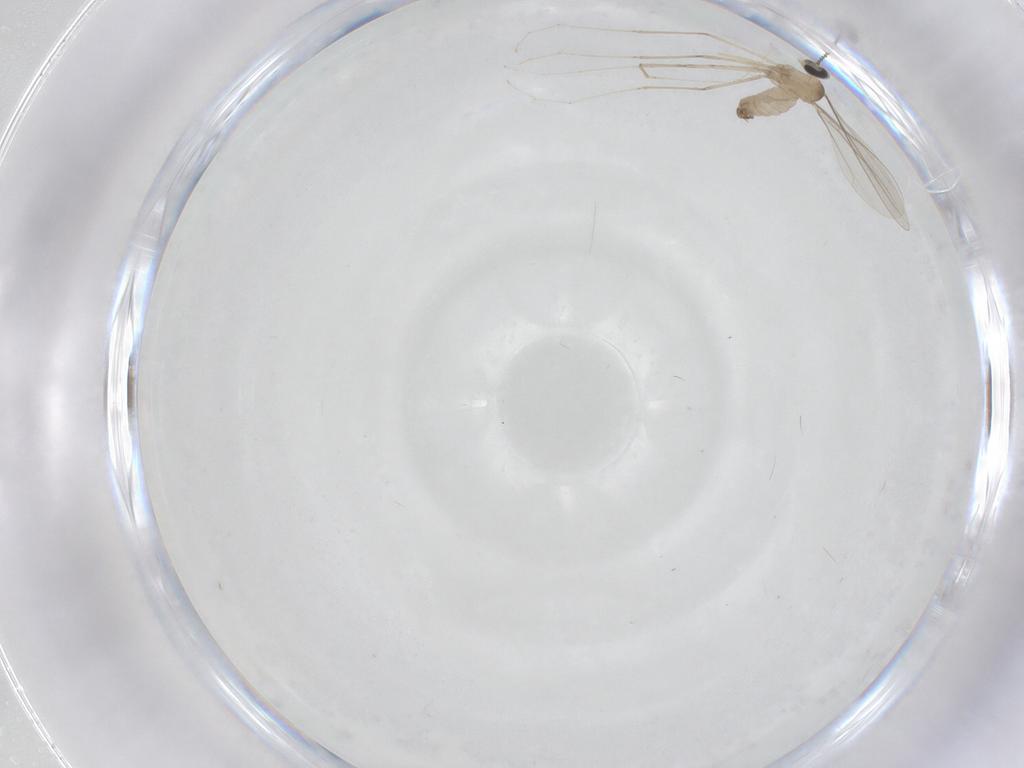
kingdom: Animalia
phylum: Arthropoda
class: Insecta
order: Diptera
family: Cecidomyiidae
